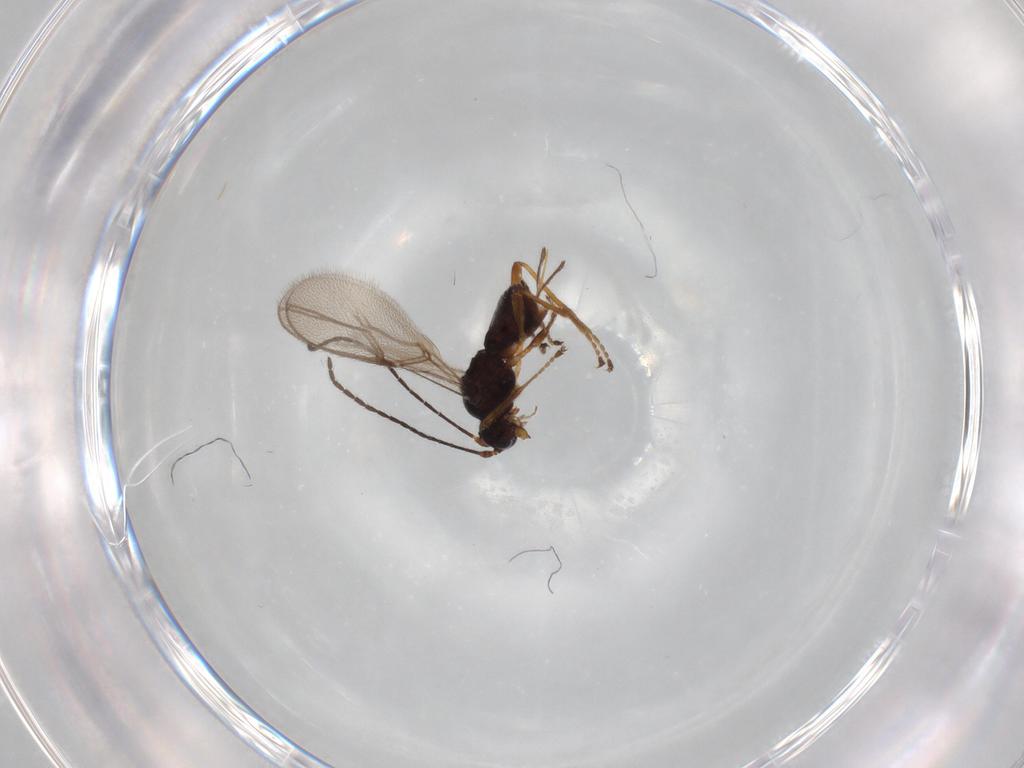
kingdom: Animalia
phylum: Arthropoda
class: Insecta
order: Hymenoptera
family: Braconidae
